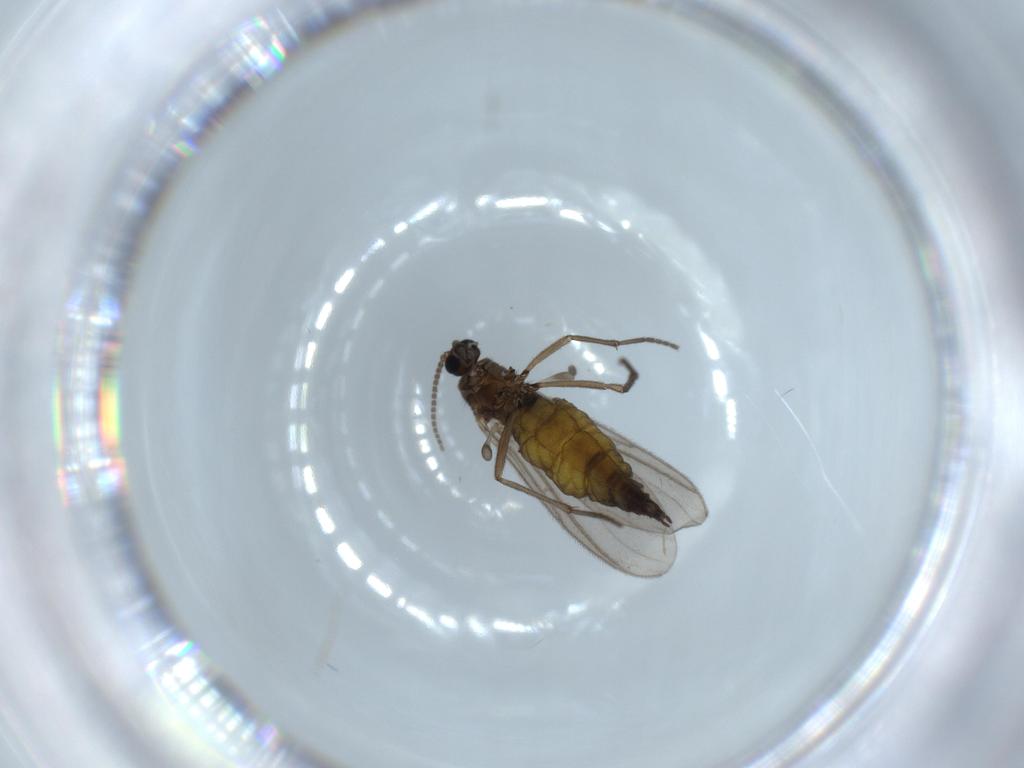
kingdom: Animalia
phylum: Arthropoda
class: Insecta
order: Diptera
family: Sciaridae
